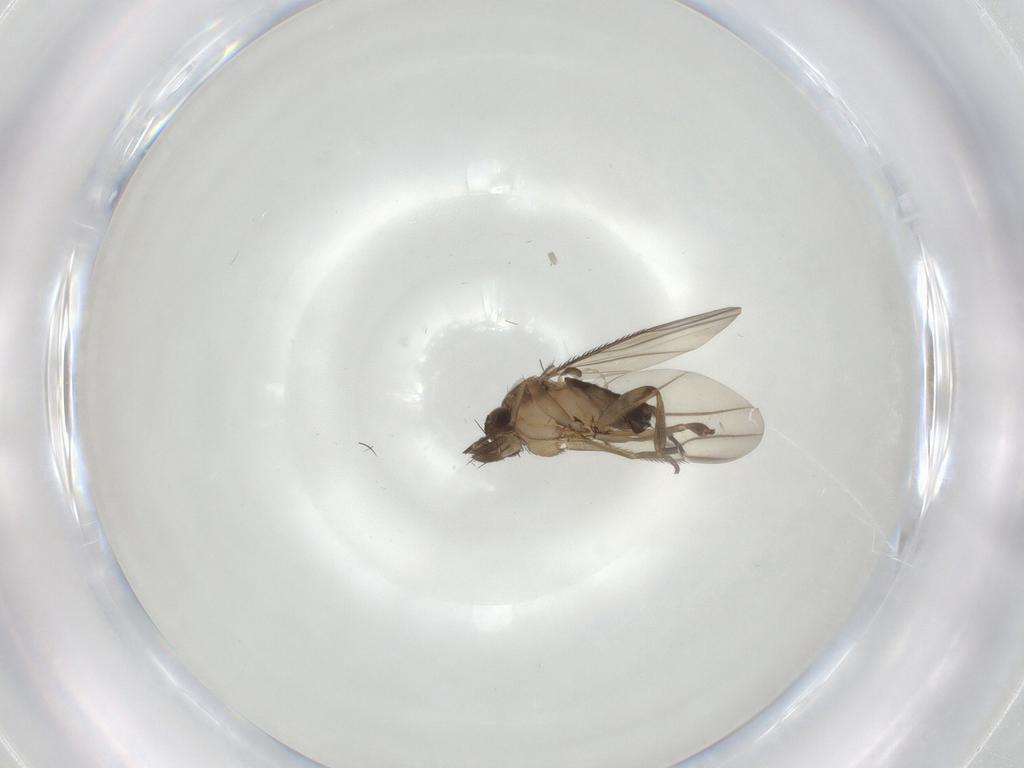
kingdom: Animalia
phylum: Arthropoda
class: Insecta
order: Diptera
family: Phoridae
